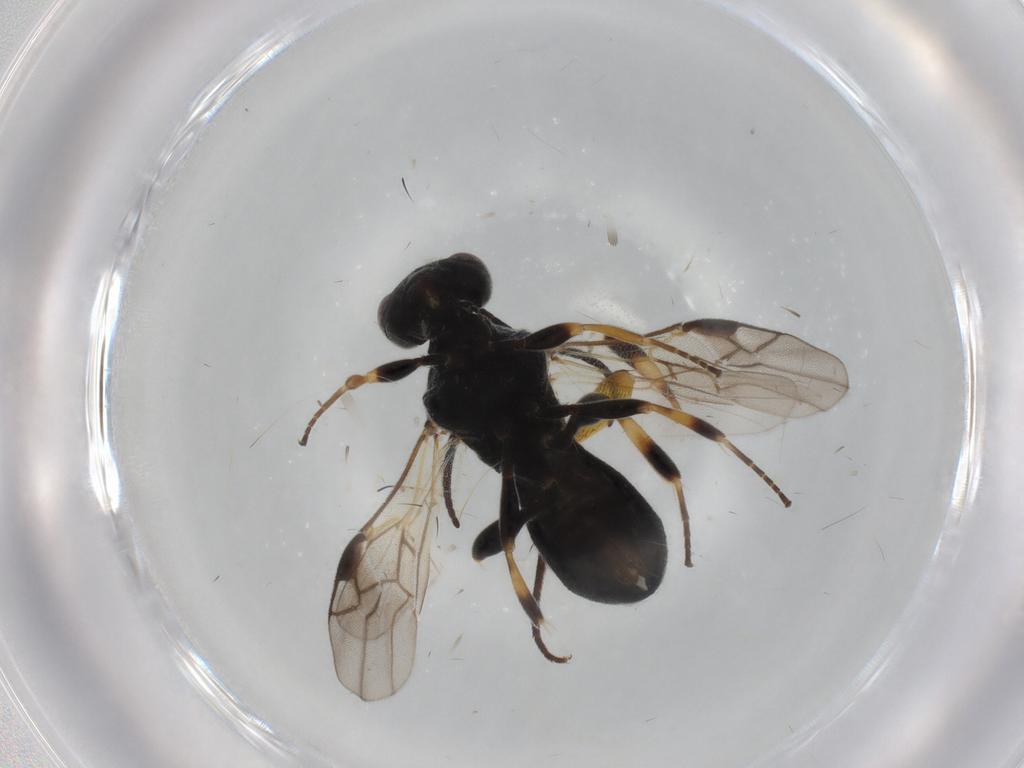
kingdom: Animalia
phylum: Arthropoda
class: Insecta
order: Hymenoptera
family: Braconidae
